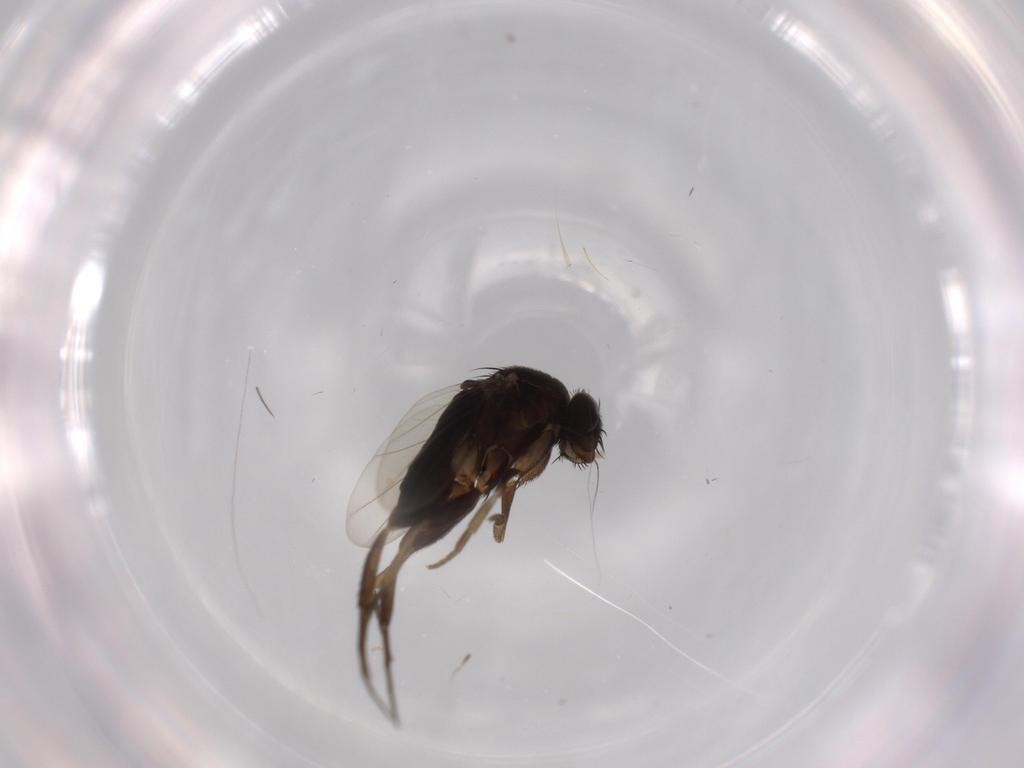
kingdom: Animalia
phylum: Arthropoda
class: Insecta
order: Diptera
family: Phoridae
